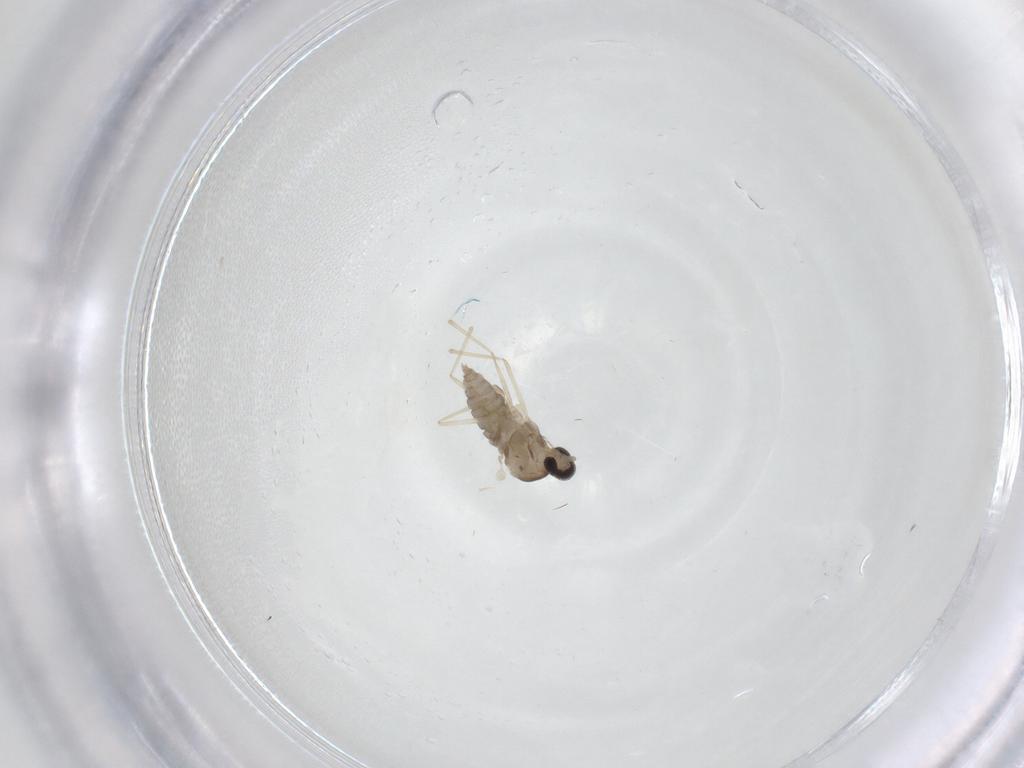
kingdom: Animalia
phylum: Arthropoda
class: Insecta
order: Diptera
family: Cecidomyiidae
